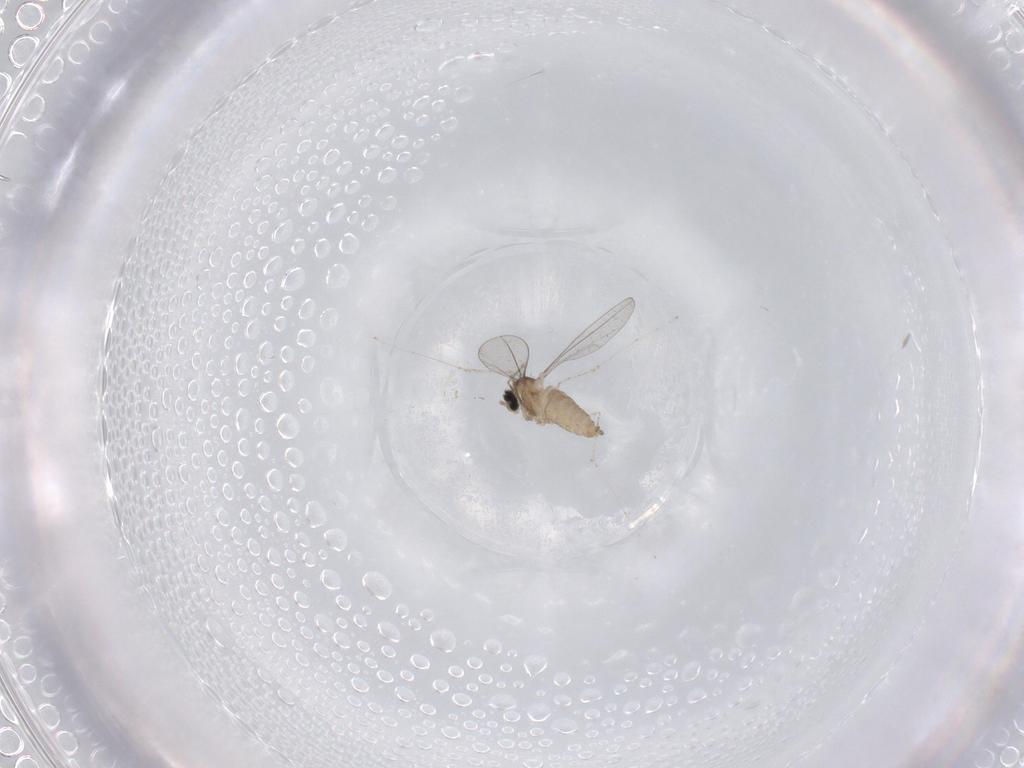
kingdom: Animalia
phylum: Arthropoda
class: Insecta
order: Diptera
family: Cecidomyiidae
